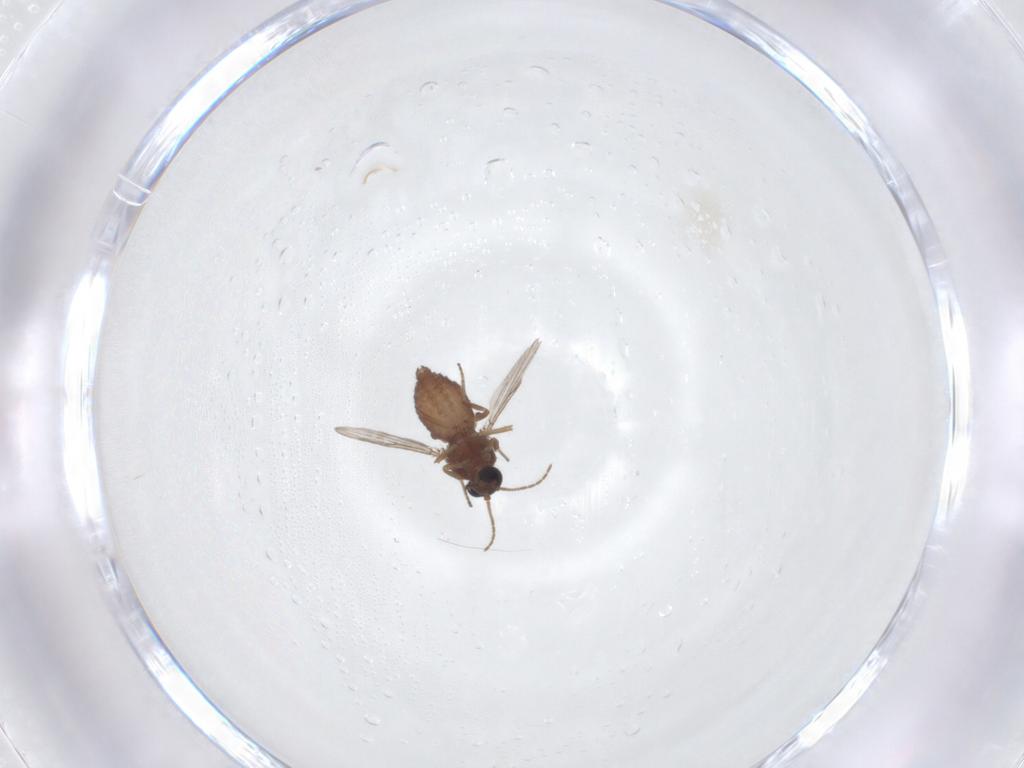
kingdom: Animalia
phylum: Arthropoda
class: Insecta
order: Diptera
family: Ceratopogonidae
